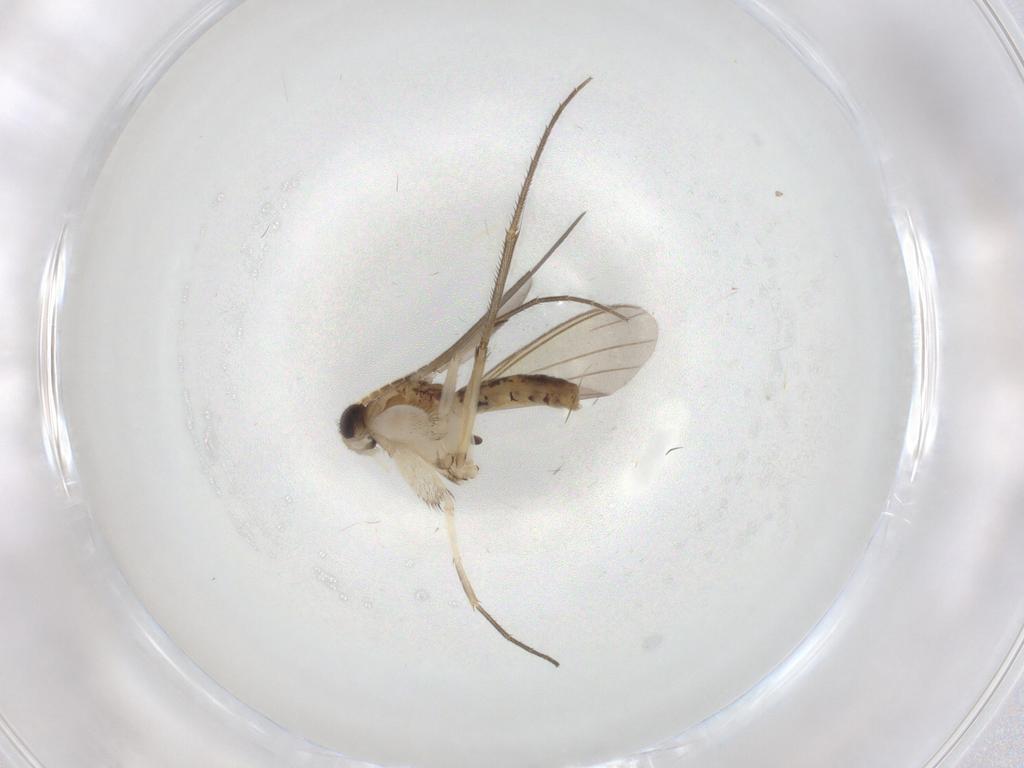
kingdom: Animalia
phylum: Arthropoda
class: Insecta
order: Diptera
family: Mycetophilidae
